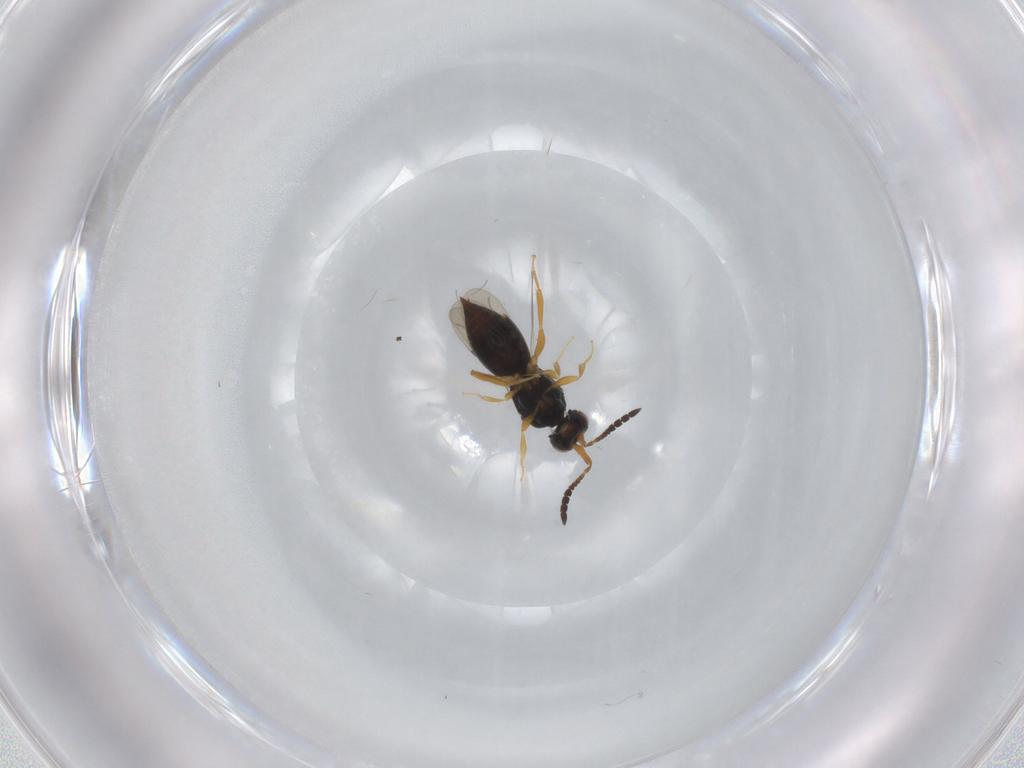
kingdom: Animalia
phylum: Arthropoda
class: Insecta
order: Hymenoptera
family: Ceraphronidae
